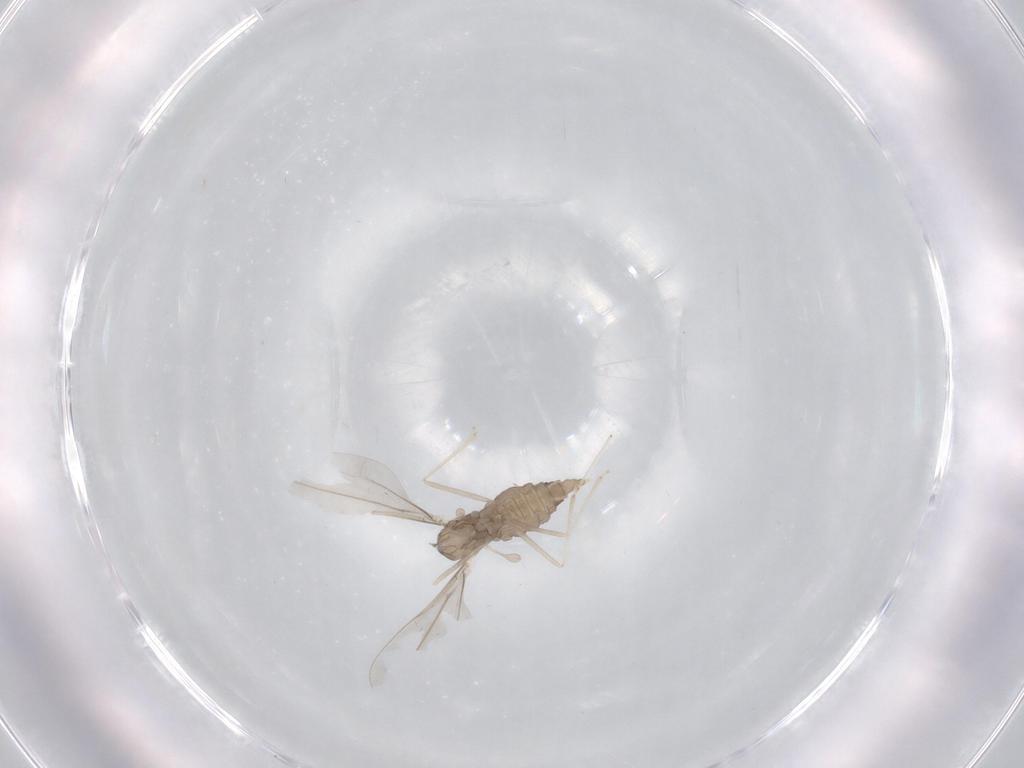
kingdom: Animalia
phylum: Arthropoda
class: Insecta
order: Diptera
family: Cecidomyiidae
